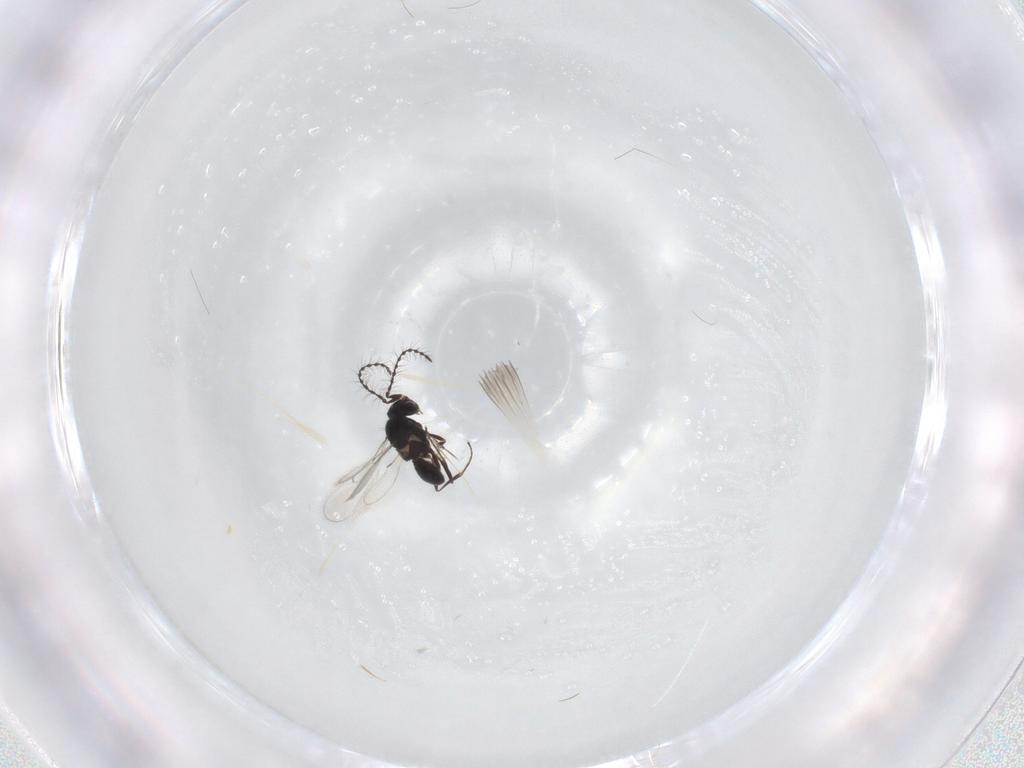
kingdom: Animalia
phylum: Arthropoda
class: Insecta
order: Hymenoptera
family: Scelionidae
